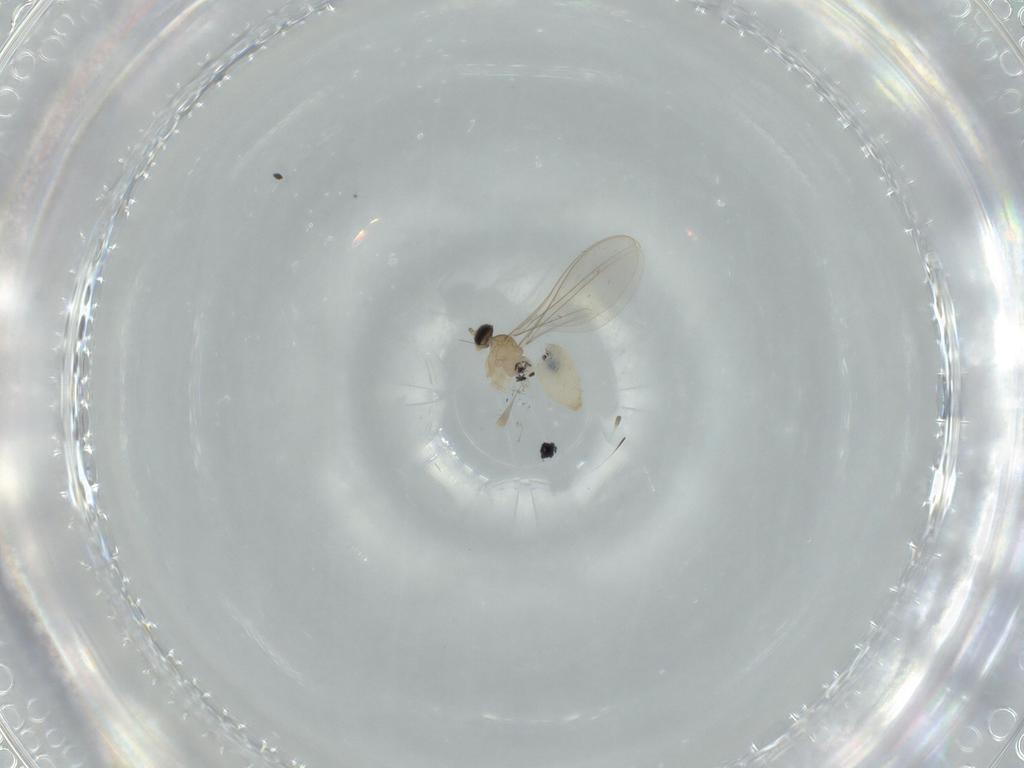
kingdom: Animalia
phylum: Arthropoda
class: Insecta
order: Diptera
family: Cecidomyiidae
